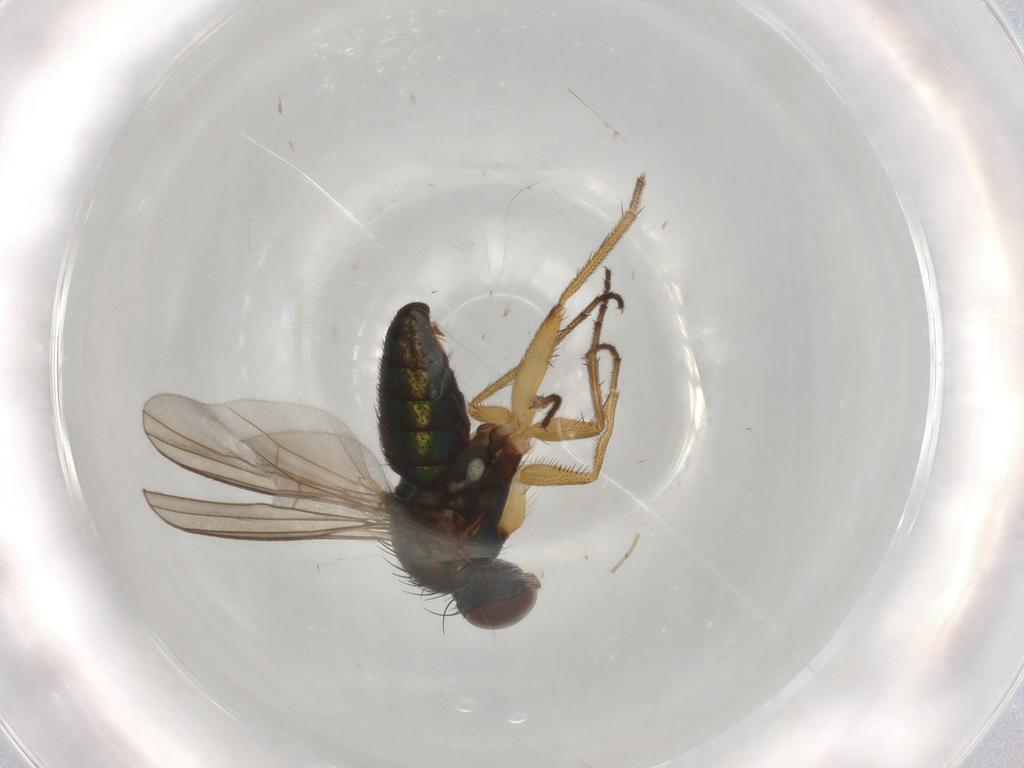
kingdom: Animalia
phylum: Arthropoda
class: Insecta
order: Diptera
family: Dolichopodidae
